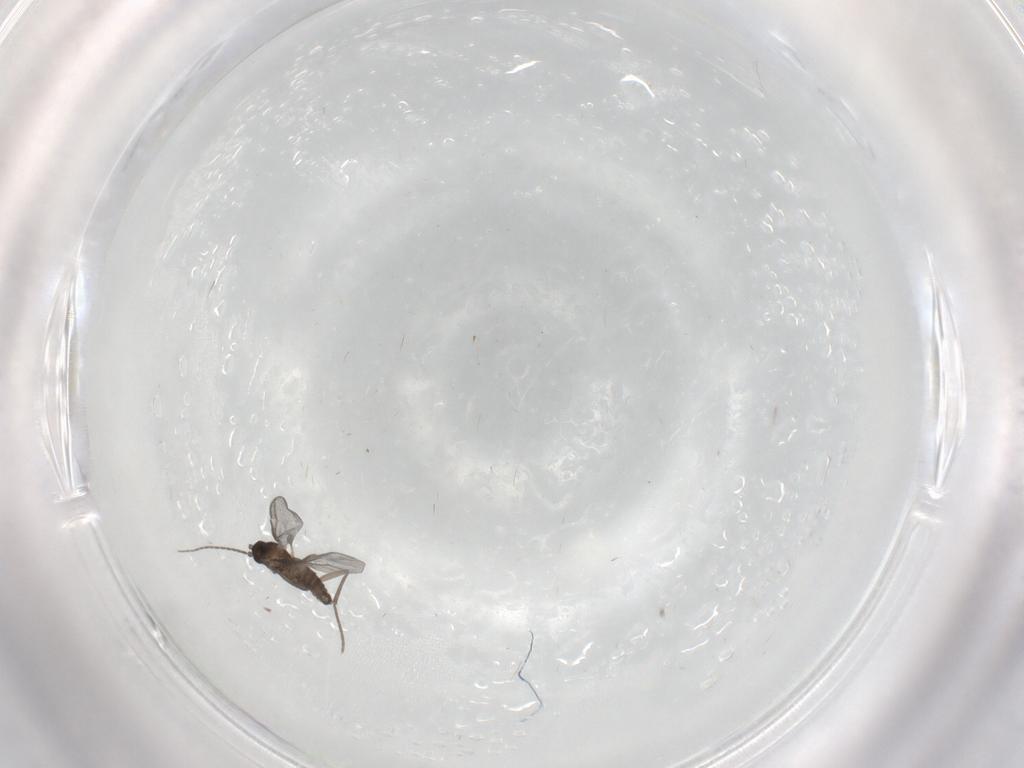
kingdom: Animalia
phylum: Arthropoda
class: Insecta
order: Diptera
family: Sciaridae
